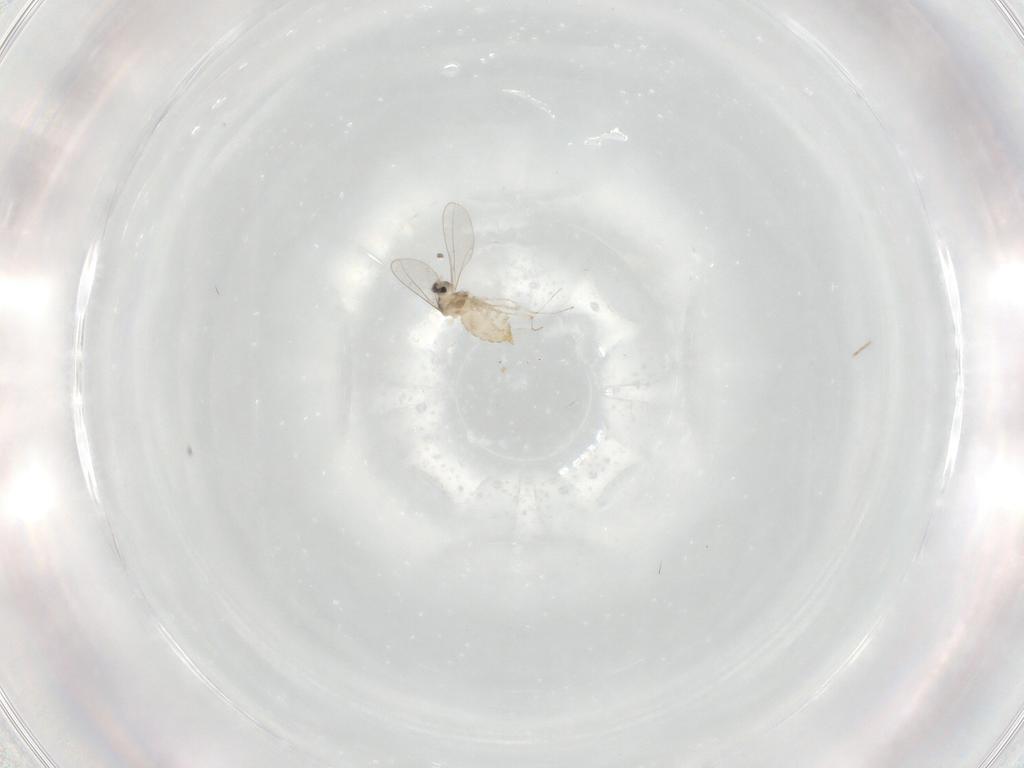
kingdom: Animalia
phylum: Arthropoda
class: Insecta
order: Diptera
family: Cecidomyiidae
